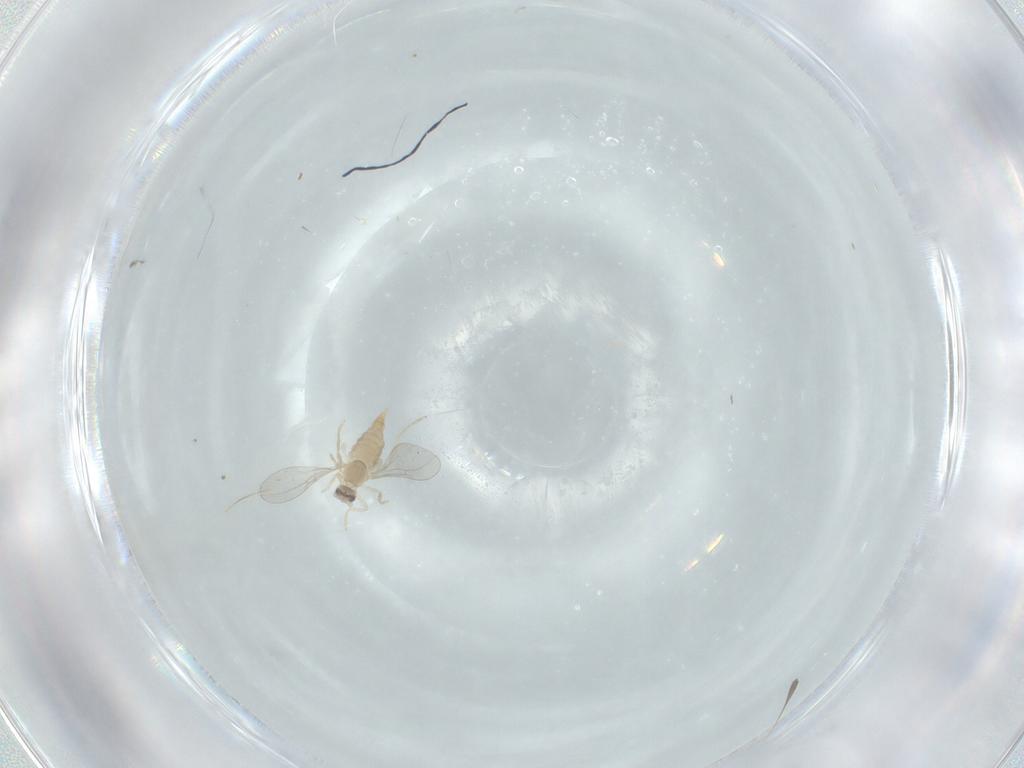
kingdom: Animalia
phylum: Arthropoda
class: Insecta
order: Diptera
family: Cecidomyiidae
